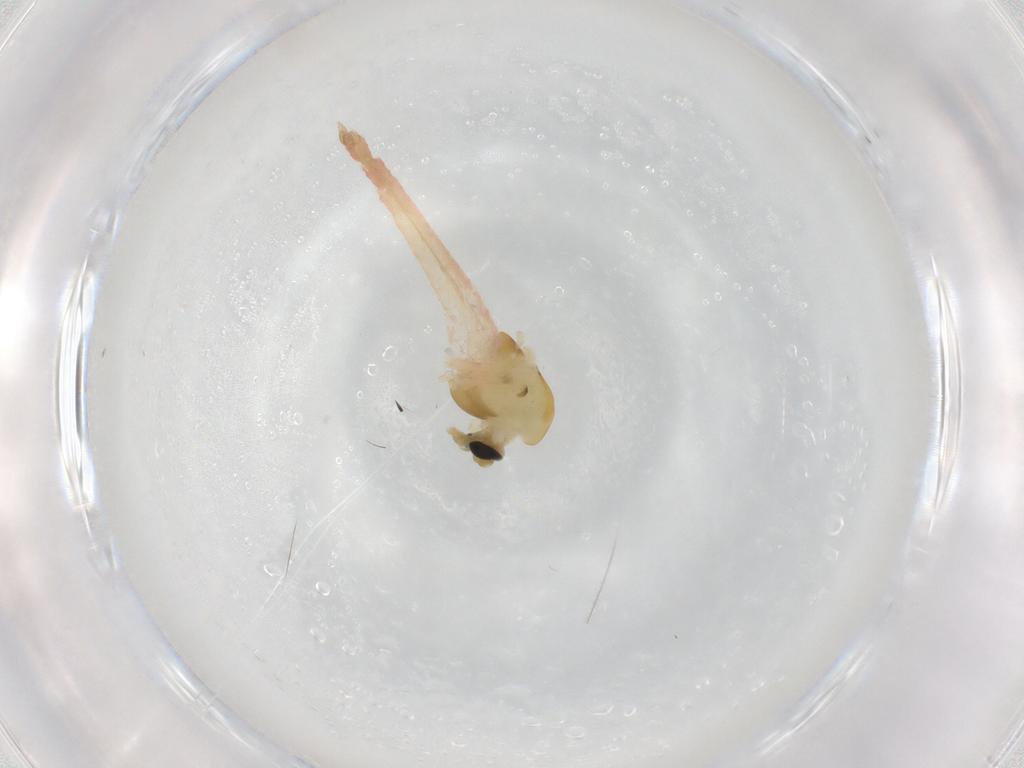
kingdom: Animalia
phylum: Arthropoda
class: Insecta
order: Diptera
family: Chironomidae
